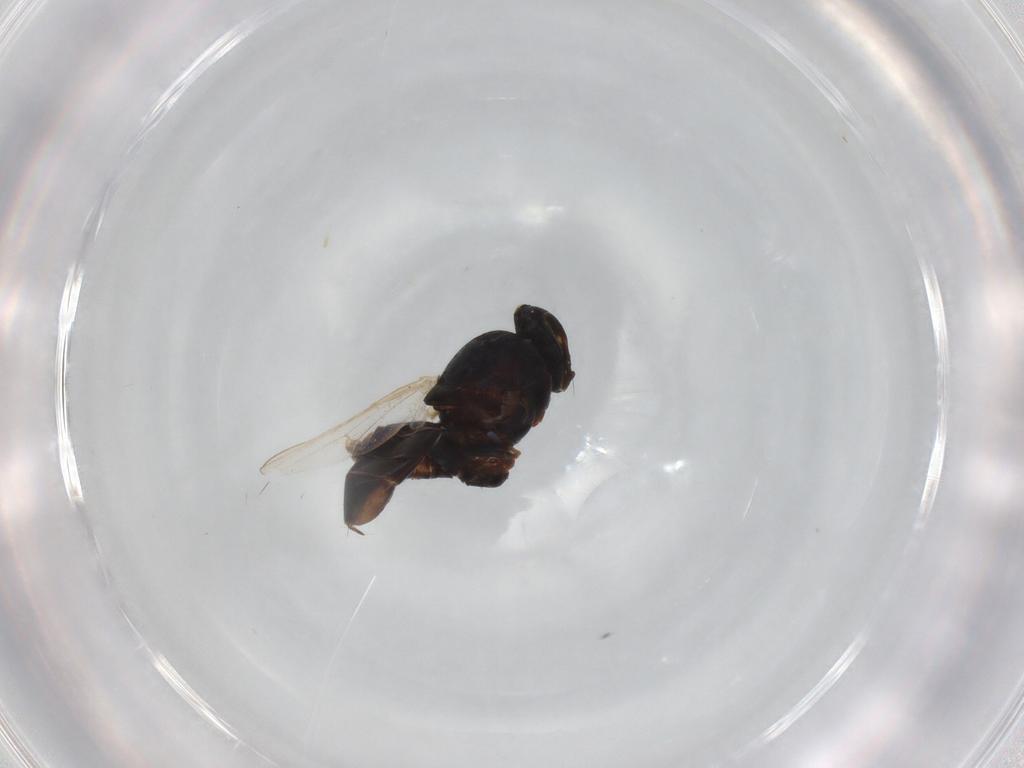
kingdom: Animalia
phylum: Arthropoda
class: Insecta
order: Diptera
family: Scatopsidae
